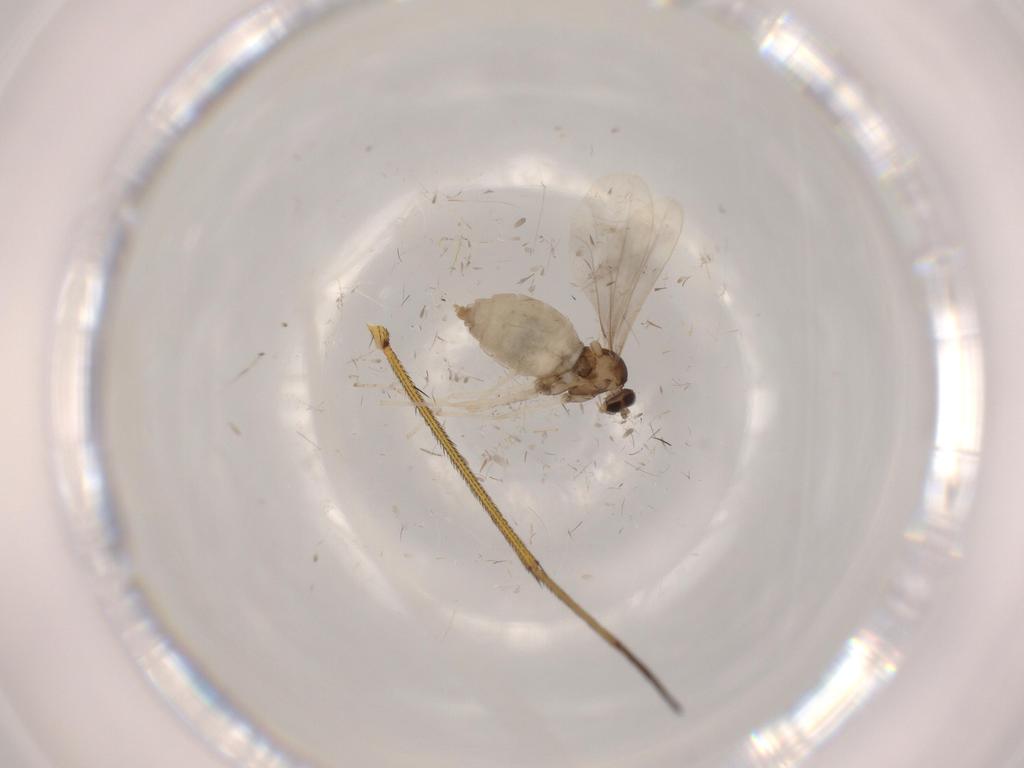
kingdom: Animalia
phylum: Arthropoda
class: Insecta
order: Diptera
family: Cecidomyiidae
